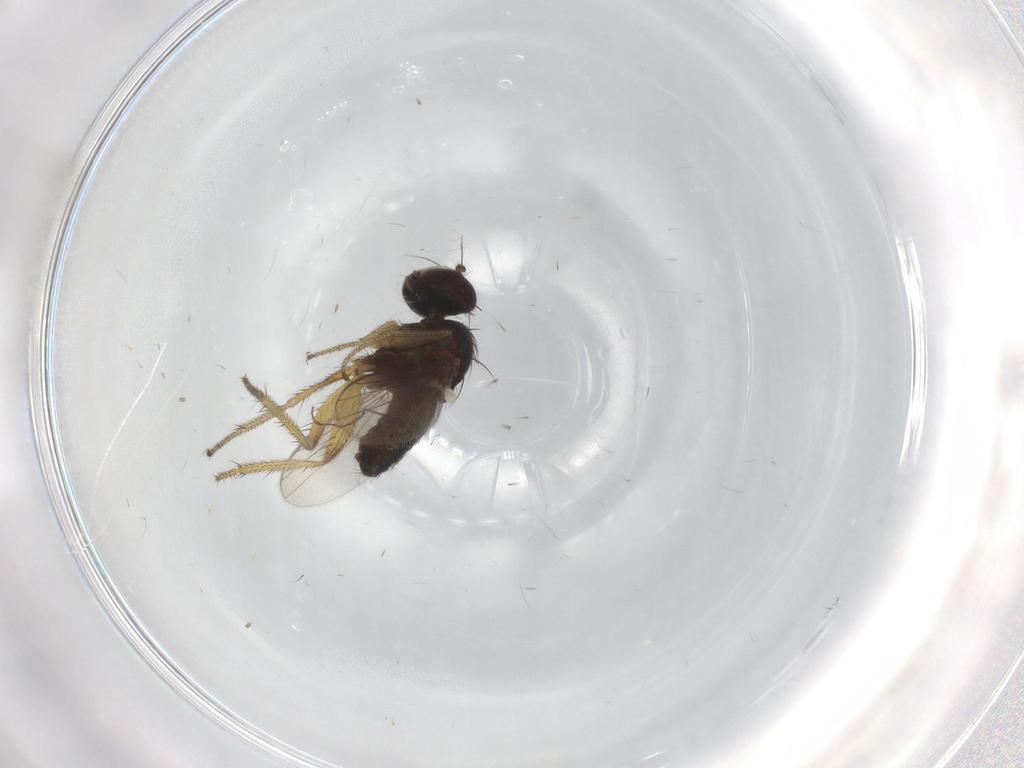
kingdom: Animalia
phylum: Arthropoda
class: Insecta
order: Diptera
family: Dolichopodidae
